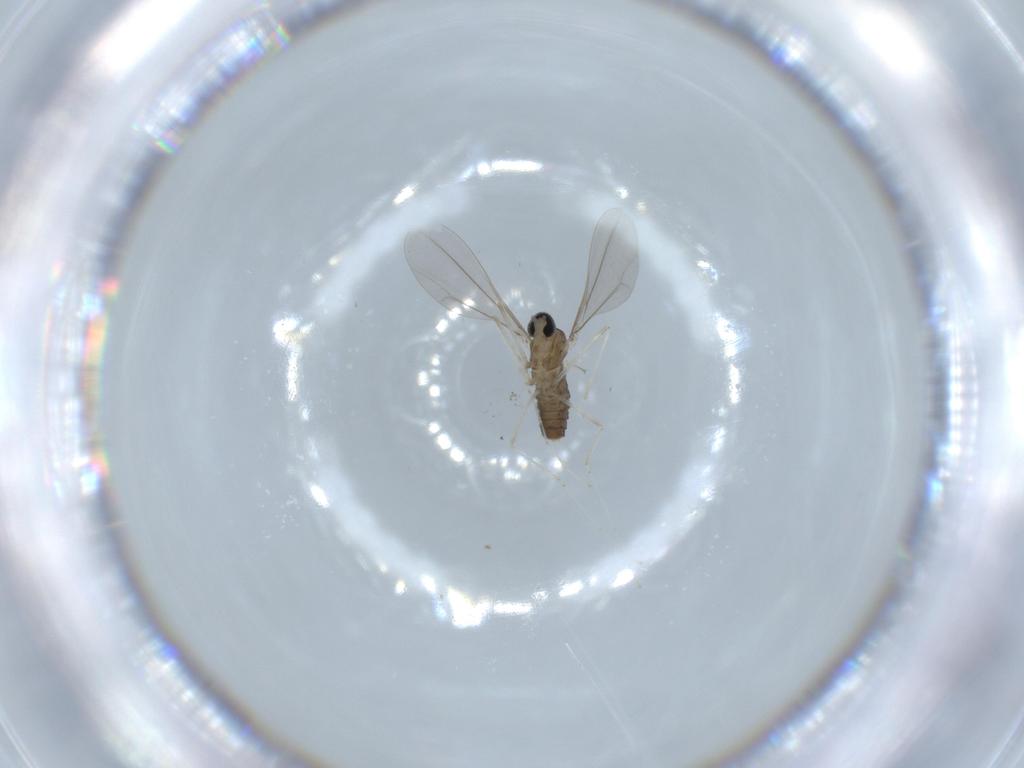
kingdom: Animalia
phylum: Arthropoda
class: Insecta
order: Diptera
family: Cecidomyiidae
